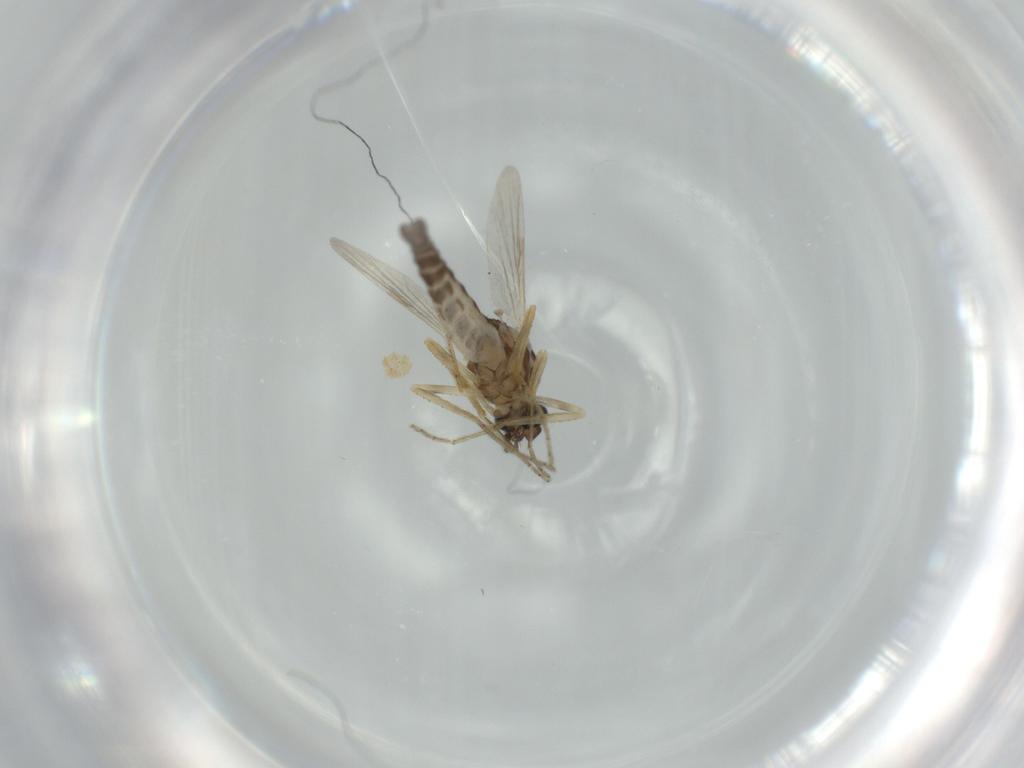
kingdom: Animalia
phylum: Arthropoda
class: Insecta
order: Diptera
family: Ceratopogonidae
